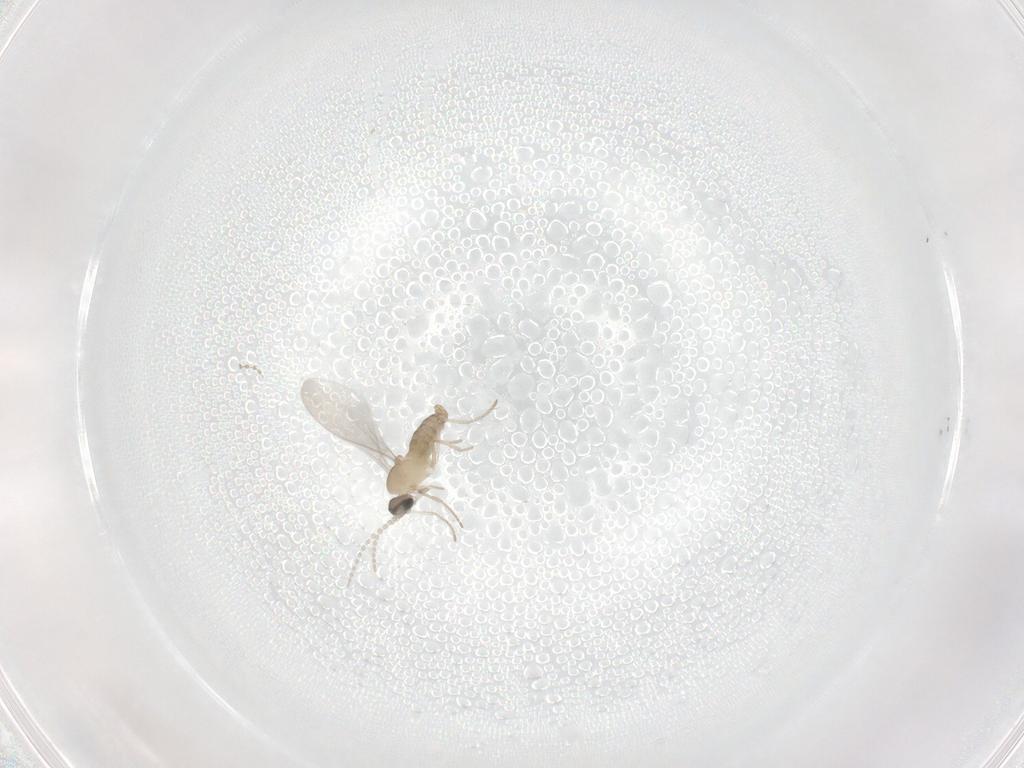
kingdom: Animalia
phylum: Arthropoda
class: Insecta
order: Diptera
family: Cecidomyiidae
